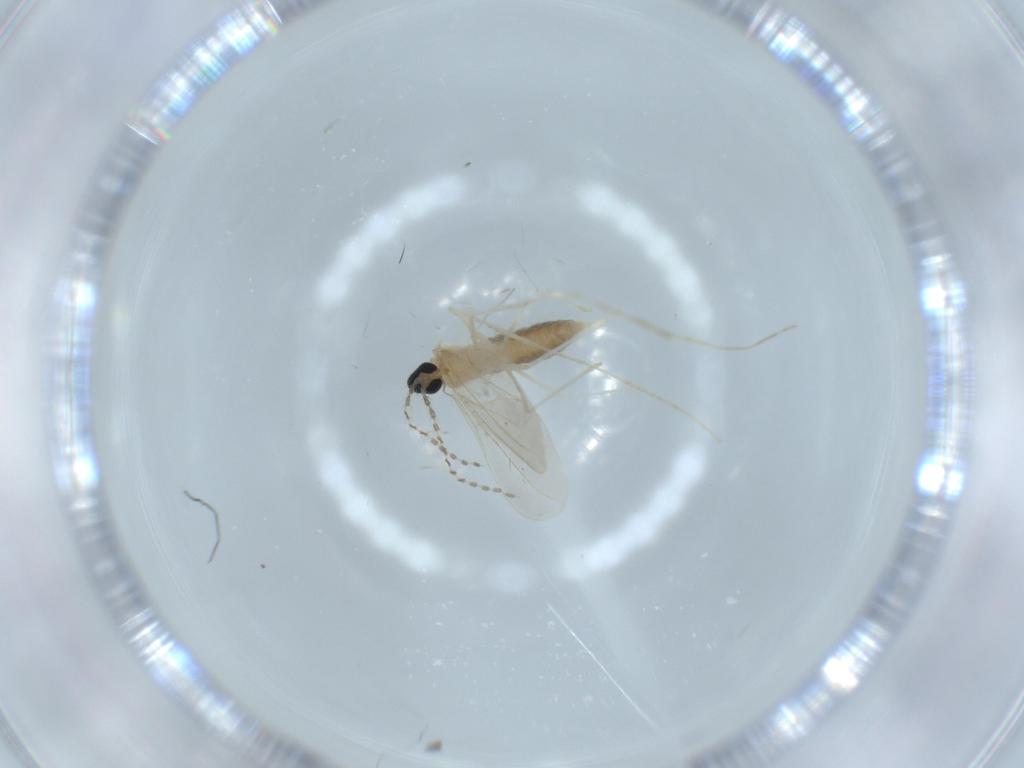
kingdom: Animalia
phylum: Arthropoda
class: Insecta
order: Diptera
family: Cecidomyiidae
